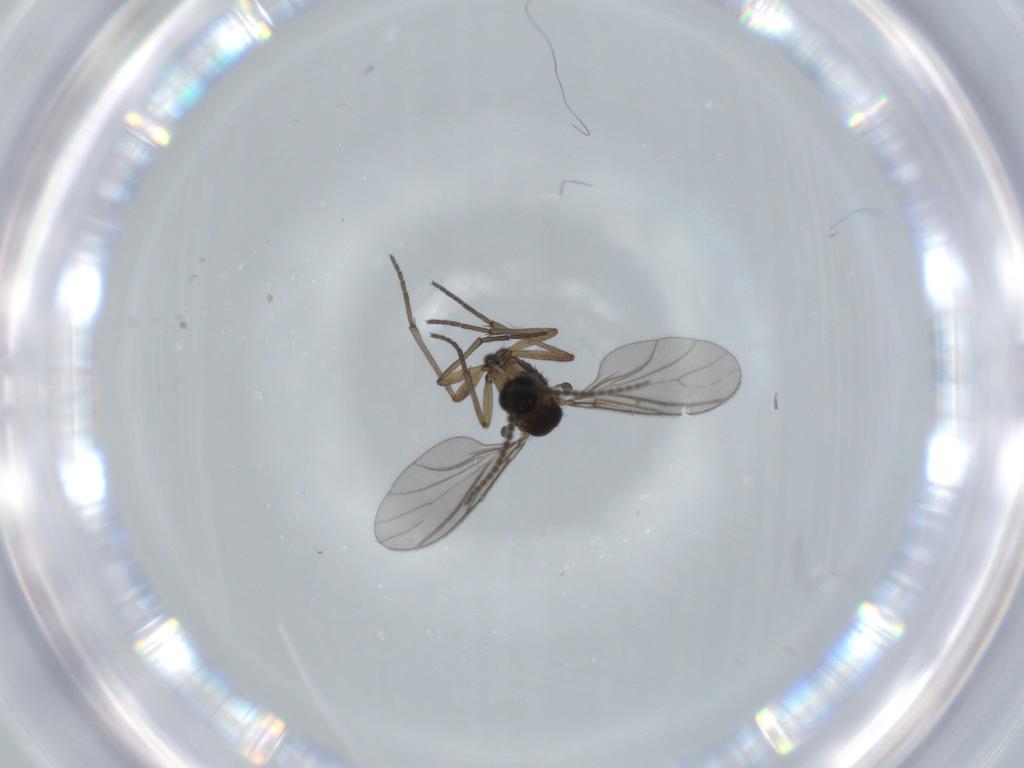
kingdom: Animalia
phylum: Arthropoda
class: Insecta
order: Diptera
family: Sciaridae
